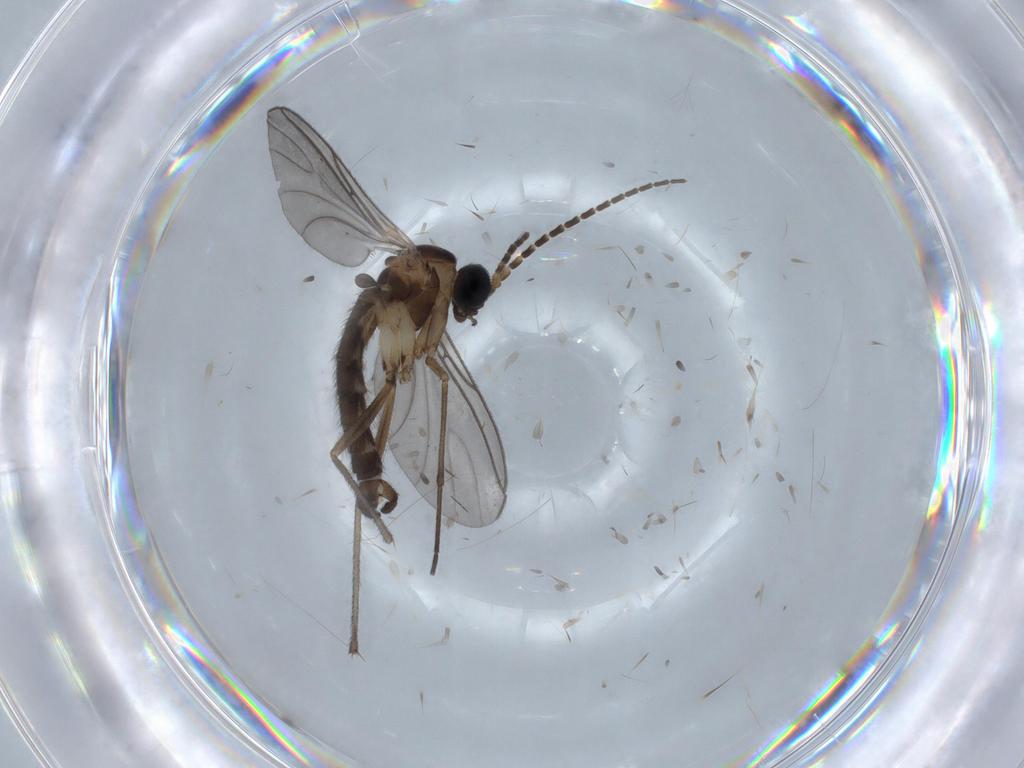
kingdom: Animalia
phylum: Arthropoda
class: Insecta
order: Diptera
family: Sciaridae
